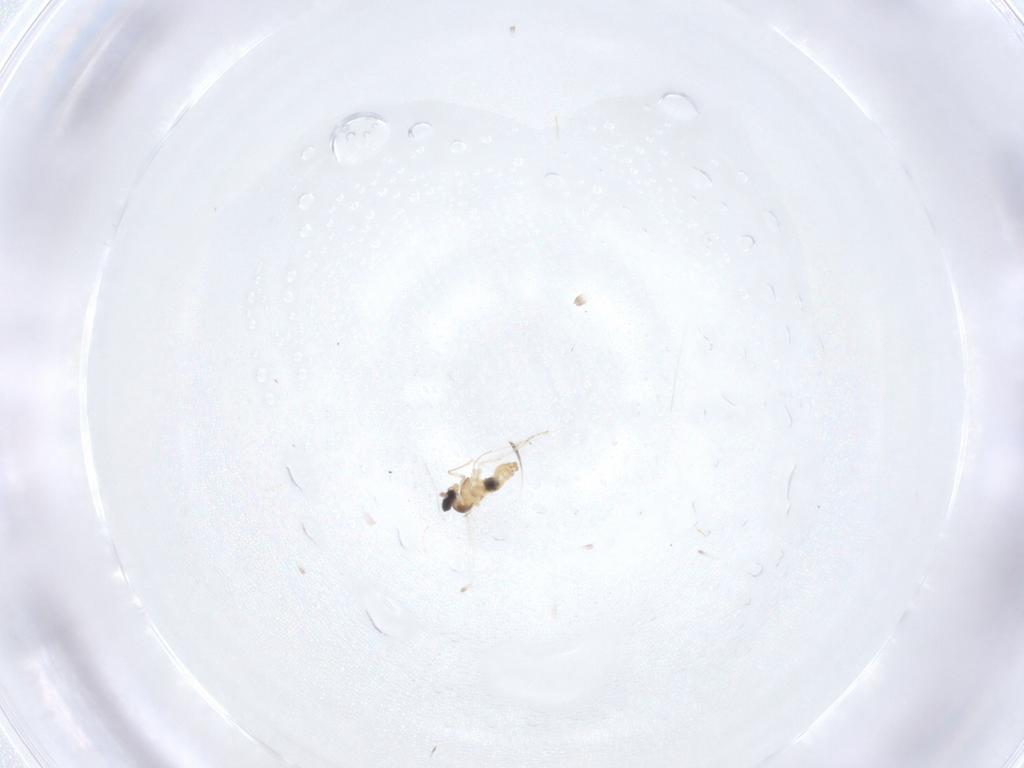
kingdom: Animalia
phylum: Arthropoda
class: Insecta
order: Diptera
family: Cecidomyiidae
